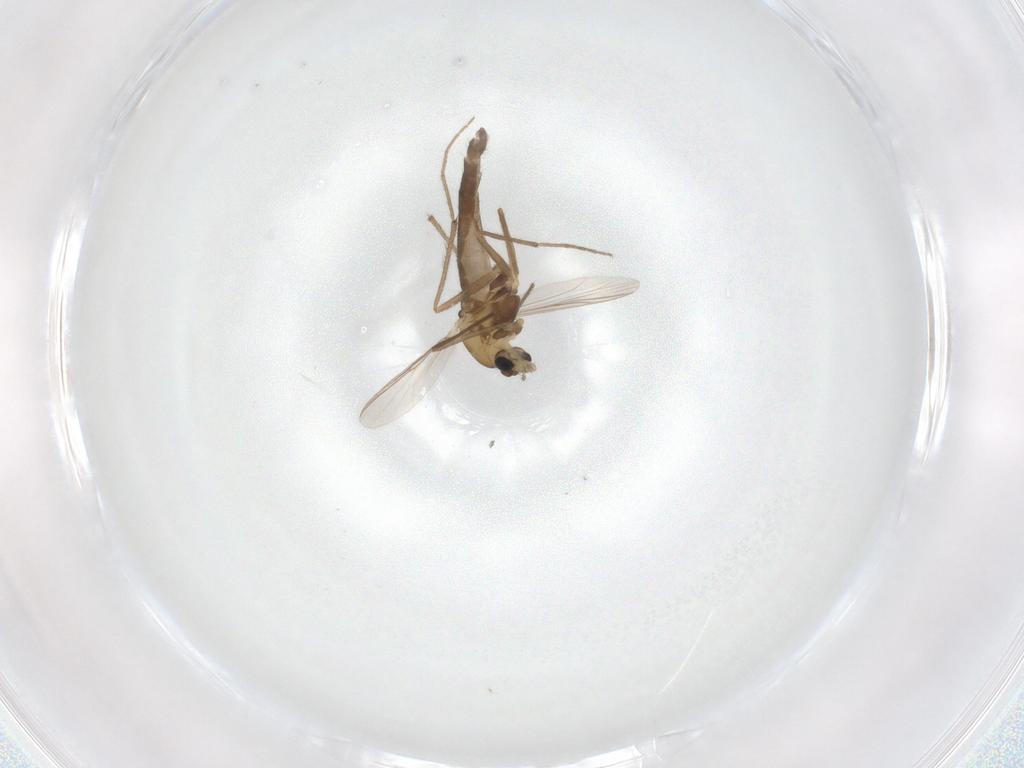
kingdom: Animalia
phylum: Arthropoda
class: Insecta
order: Diptera
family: Chironomidae
